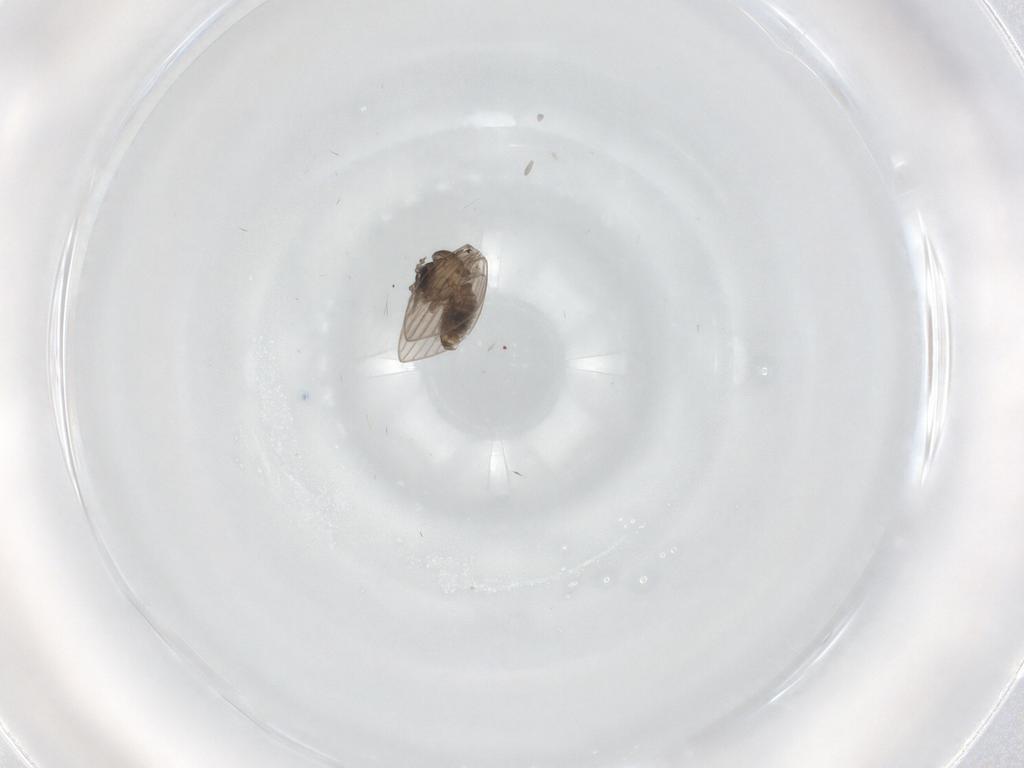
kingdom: Animalia
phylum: Arthropoda
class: Insecta
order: Diptera
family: Psychodidae
